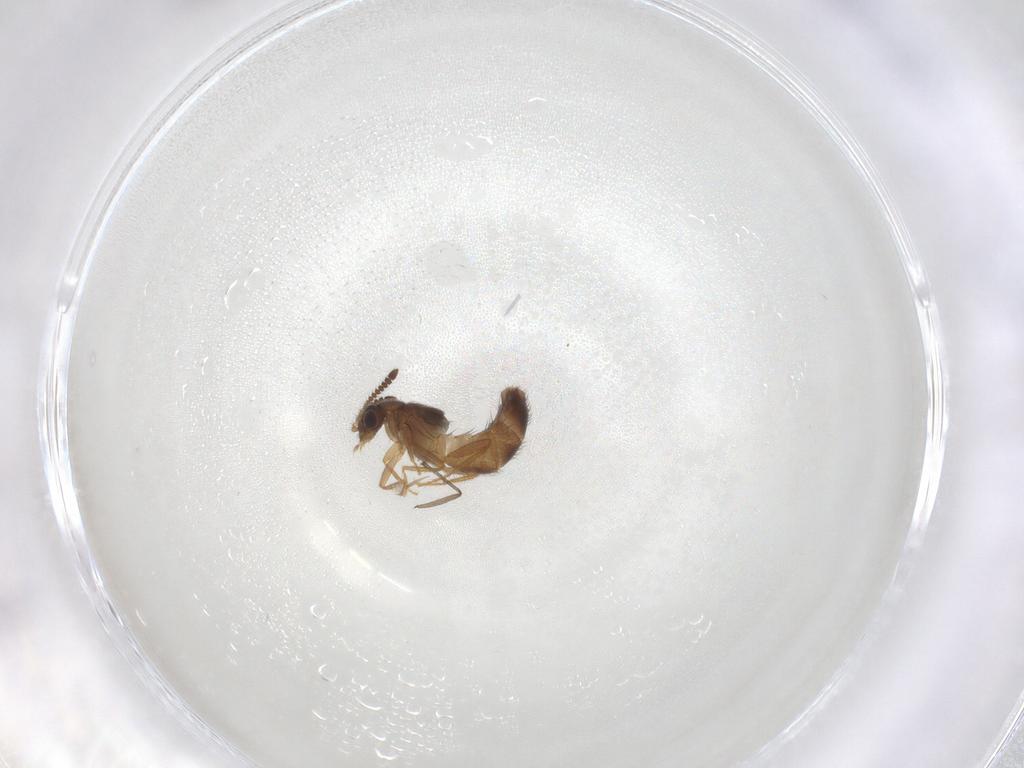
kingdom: Animalia
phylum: Arthropoda
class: Insecta
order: Coleoptera
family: Staphylinidae
